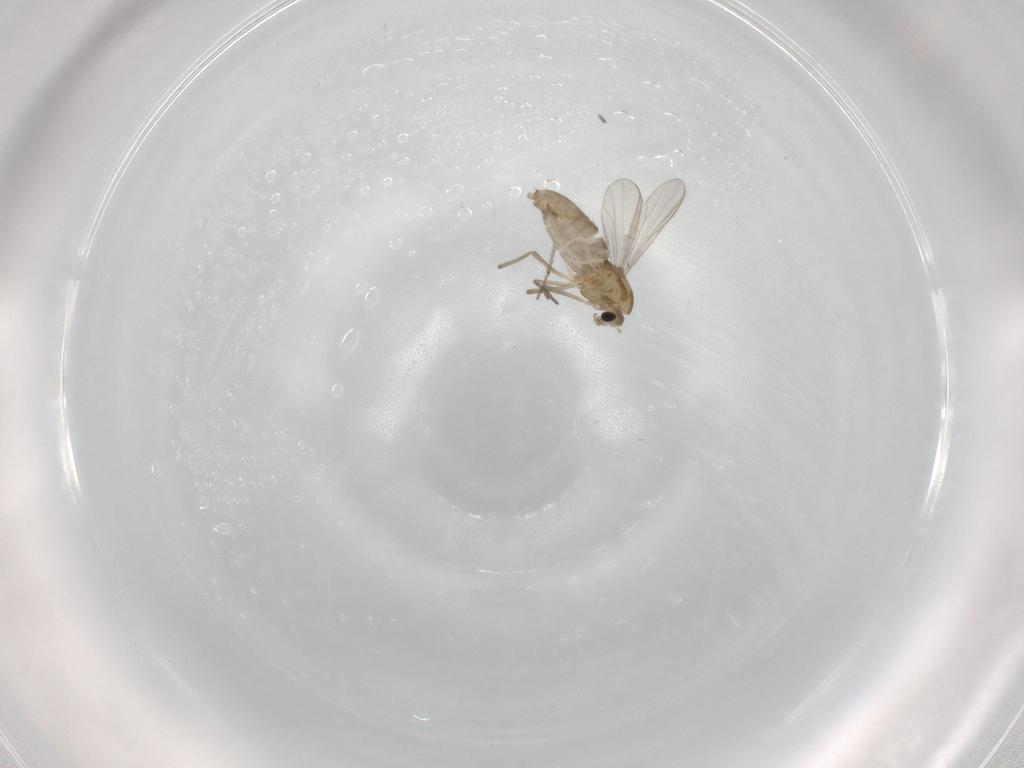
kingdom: Animalia
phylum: Arthropoda
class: Insecta
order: Diptera
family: Chironomidae
